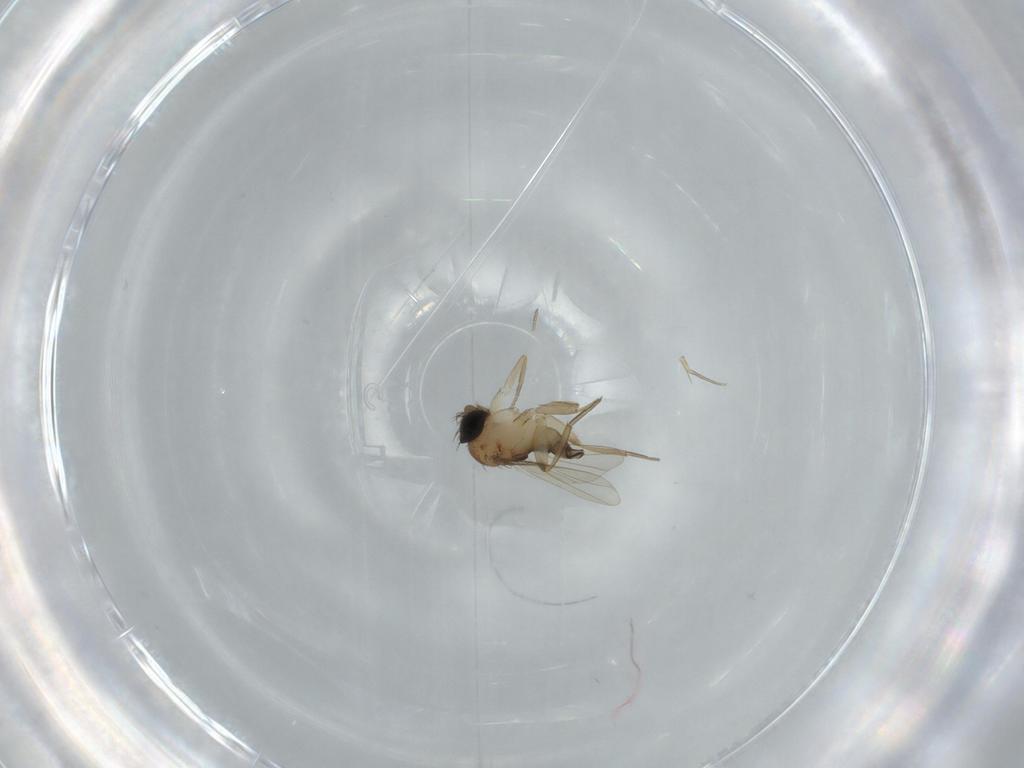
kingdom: Animalia
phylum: Arthropoda
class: Insecta
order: Diptera
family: Phoridae
